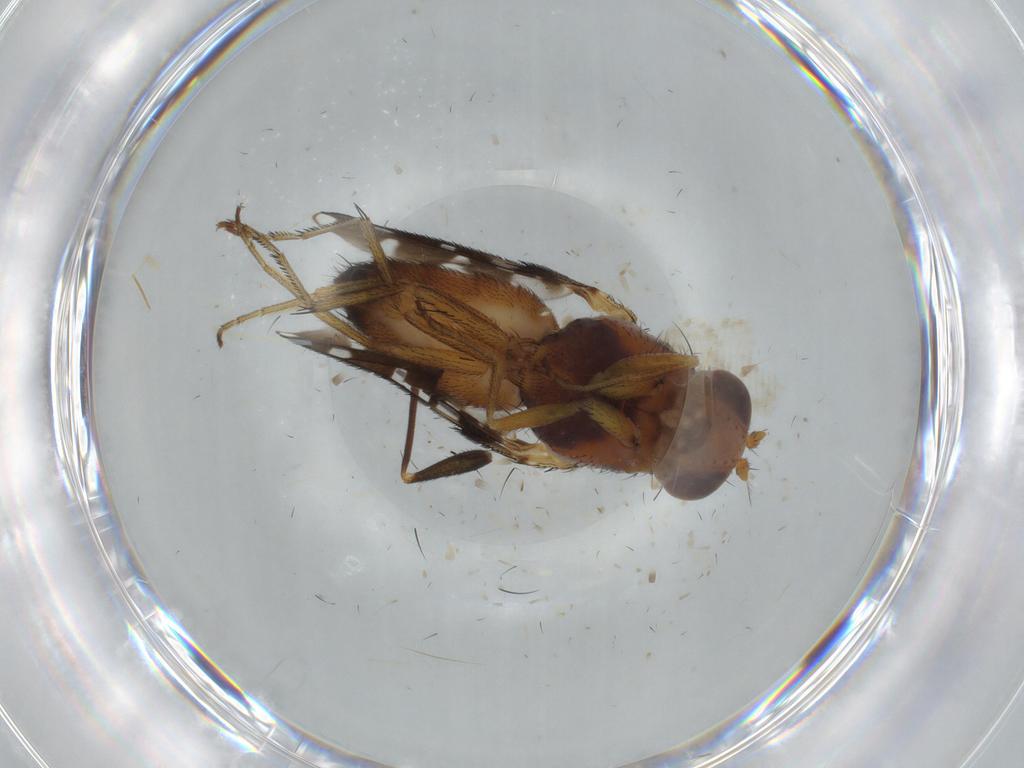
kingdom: Animalia
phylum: Arthropoda
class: Insecta
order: Diptera
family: Dolichopodidae
